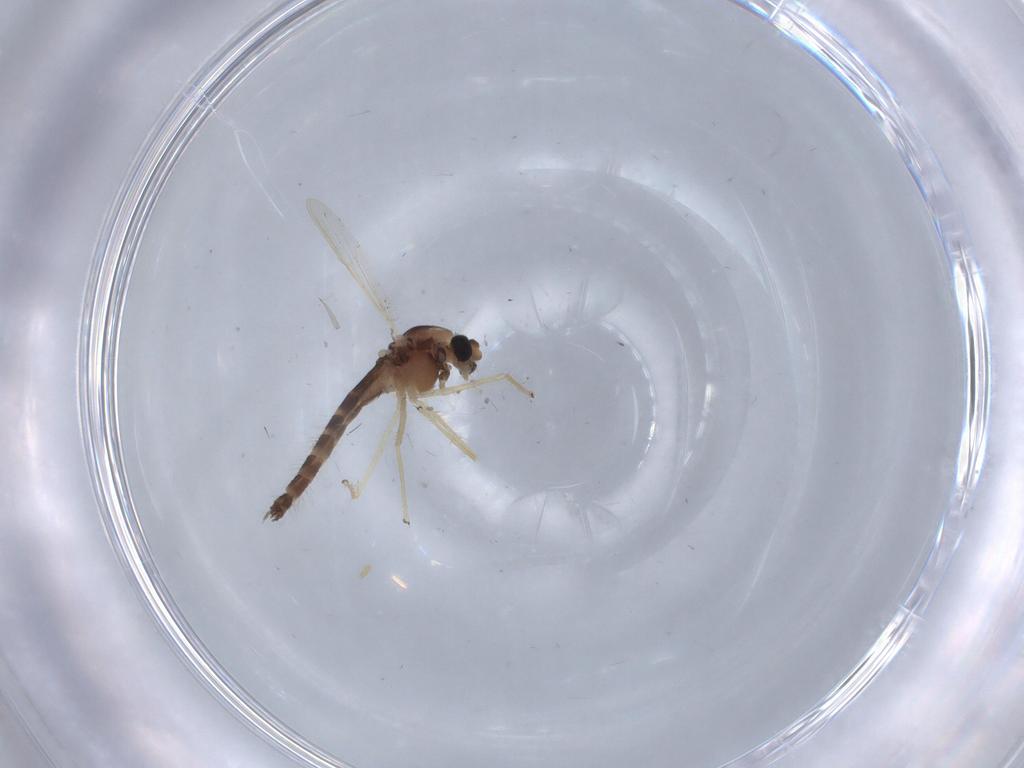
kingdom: Animalia
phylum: Arthropoda
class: Insecta
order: Diptera
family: Chironomidae
